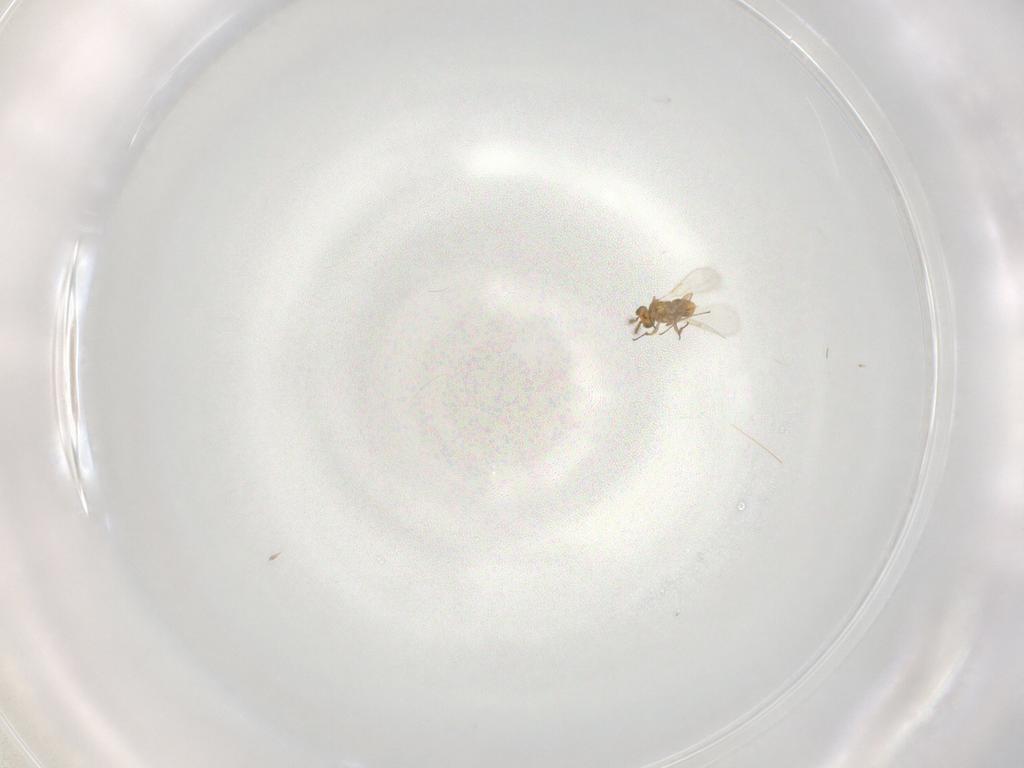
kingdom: Animalia
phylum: Arthropoda
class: Insecta
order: Hymenoptera
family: Aphelinidae
